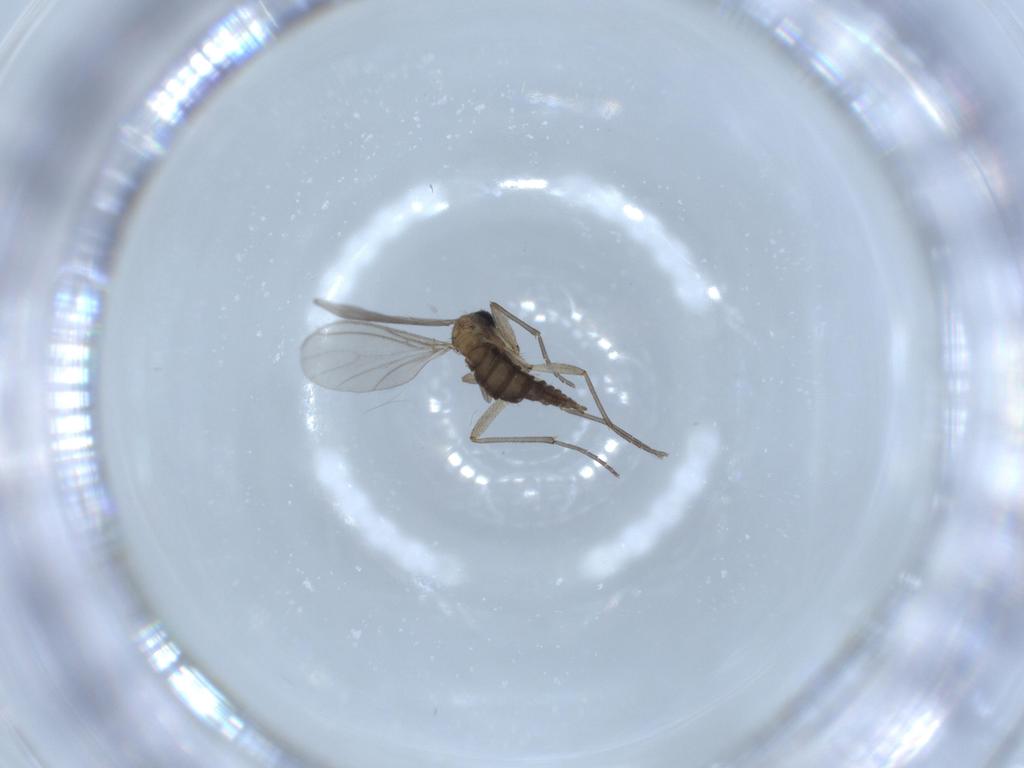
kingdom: Animalia
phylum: Arthropoda
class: Insecta
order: Diptera
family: Sciaridae
